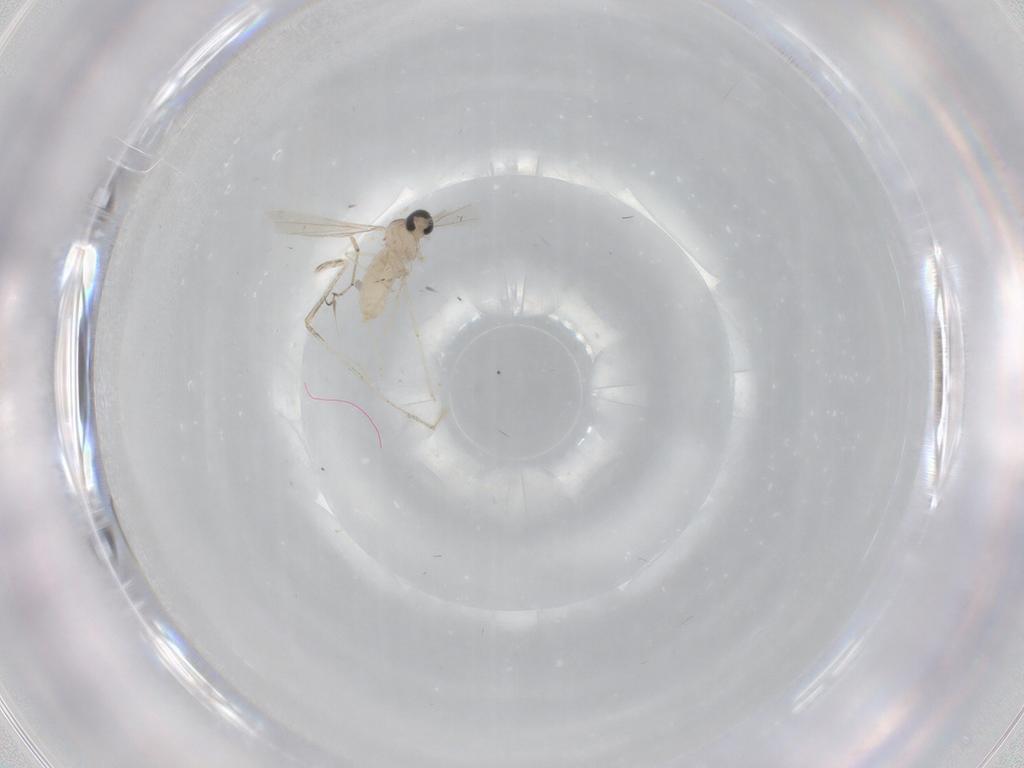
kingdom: Animalia
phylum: Arthropoda
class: Insecta
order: Diptera
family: Cecidomyiidae
